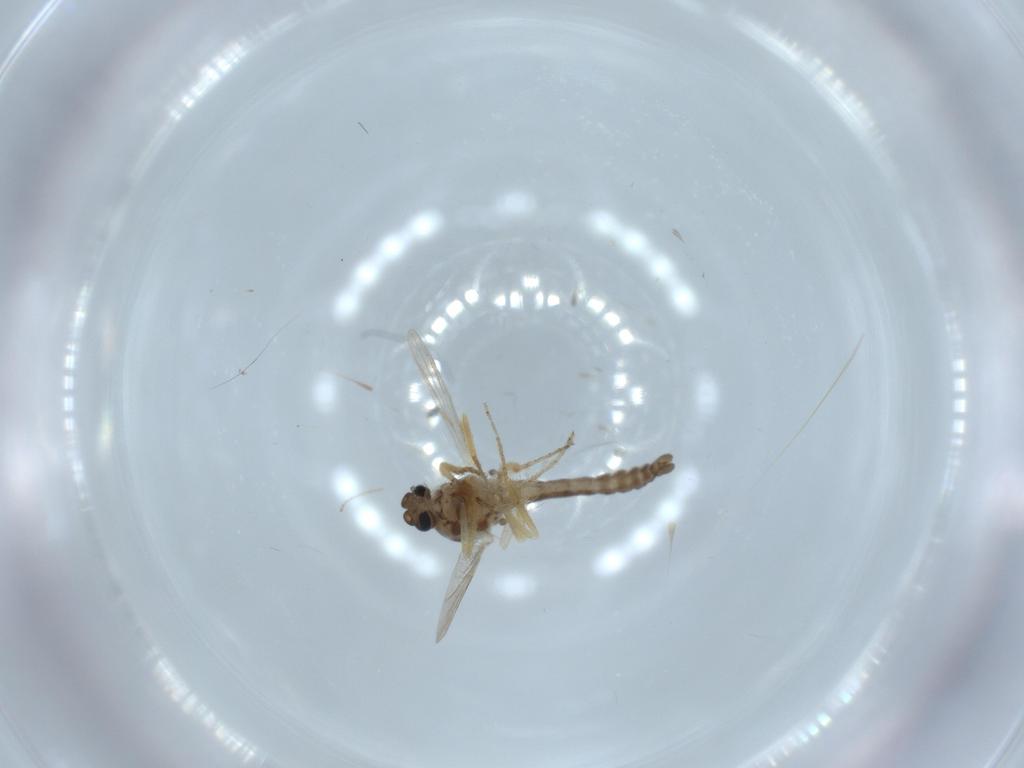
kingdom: Animalia
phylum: Arthropoda
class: Insecta
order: Diptera
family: Ceratopogonidae
